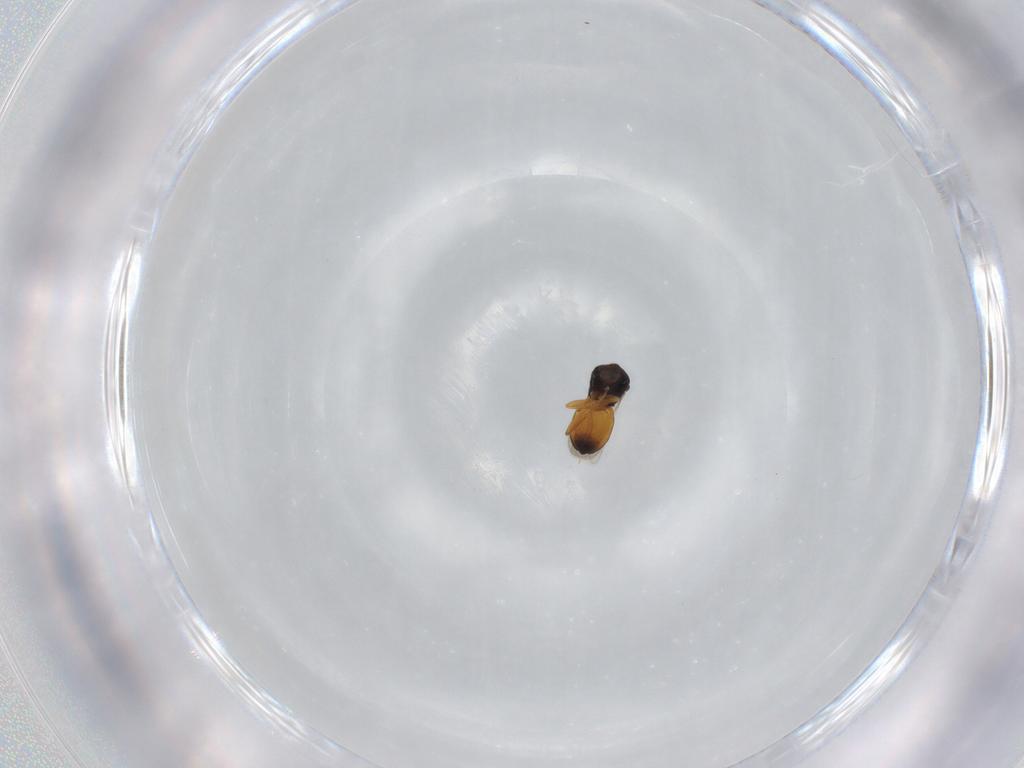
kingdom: Animalia
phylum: Arthropoda
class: Insecta
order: Hymenoptera
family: Scelionidae
